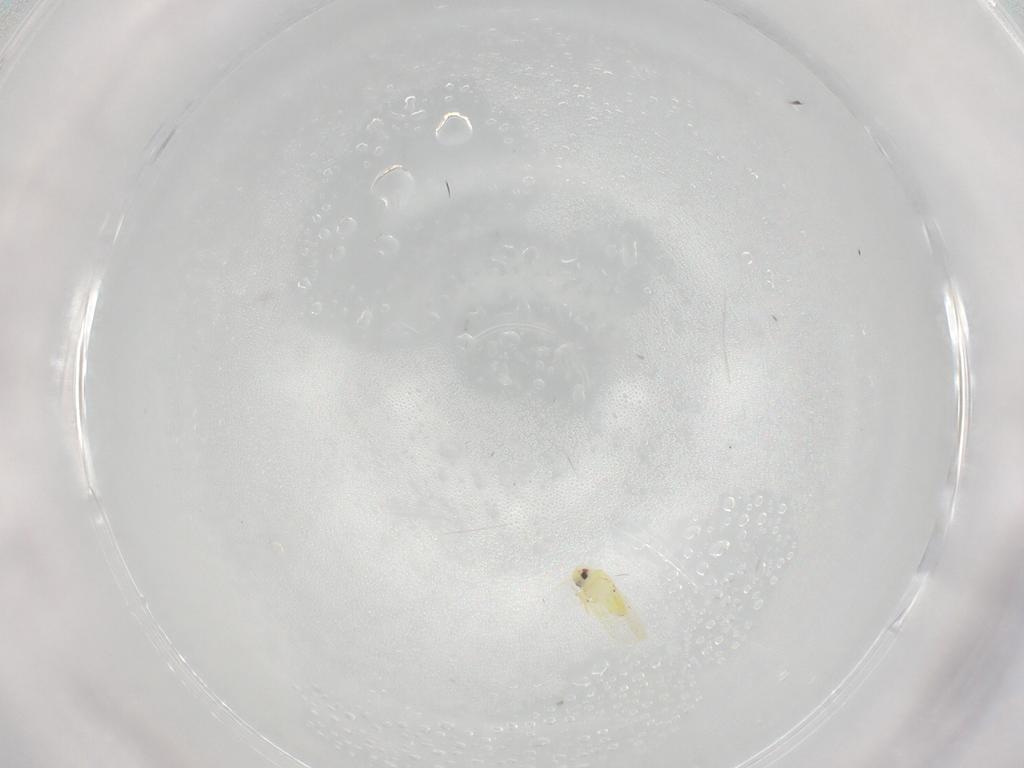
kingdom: Animalia
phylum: Arthropoda
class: Insecta
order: Hemiptera
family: Aleyrodidae
